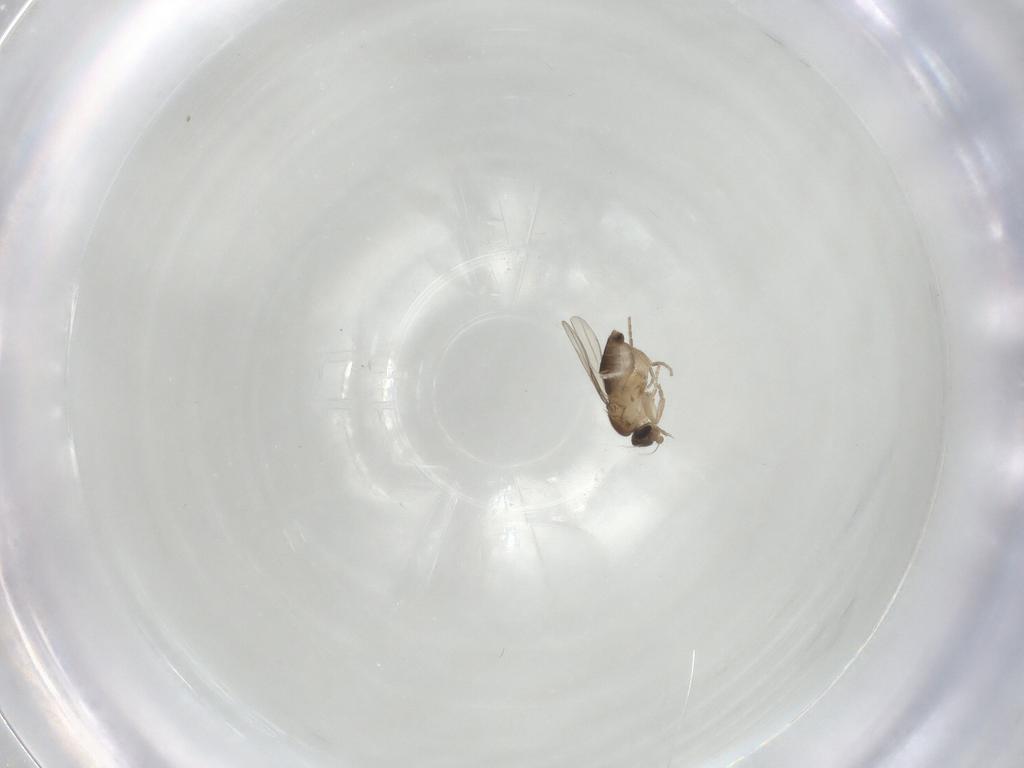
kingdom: Animalia
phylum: Arthropoda
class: Insecta
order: Diptera
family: Phoridae
